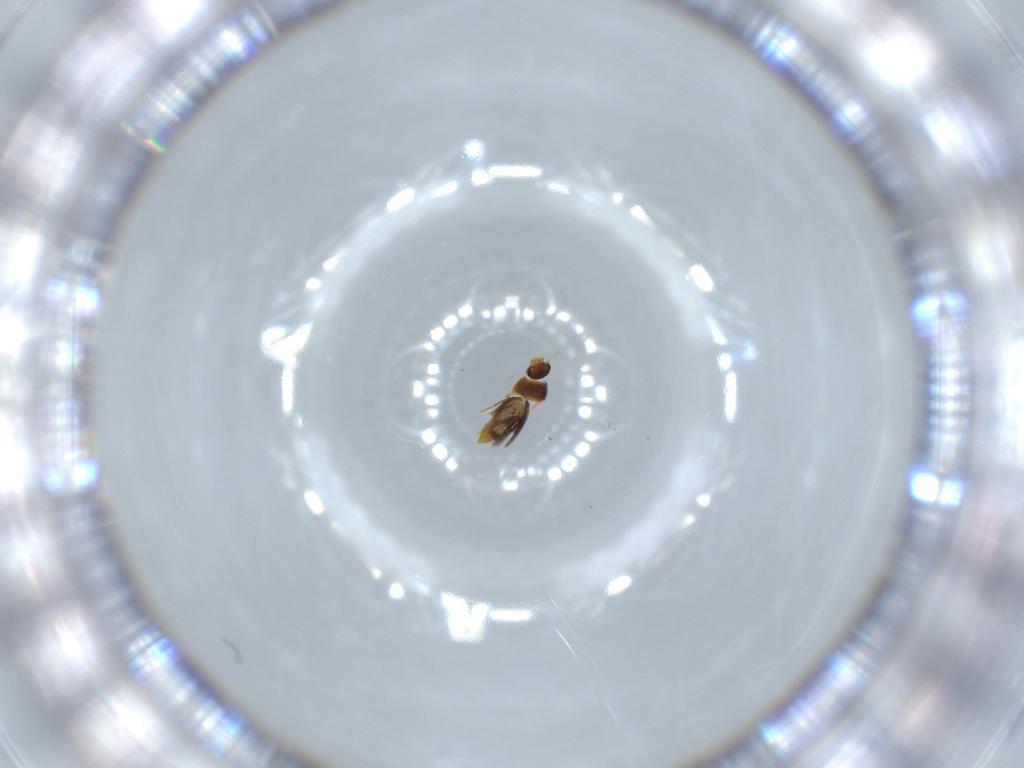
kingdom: Animalia
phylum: Arthropoda
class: Insecta
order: Coleoptera
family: Ptiliidae
